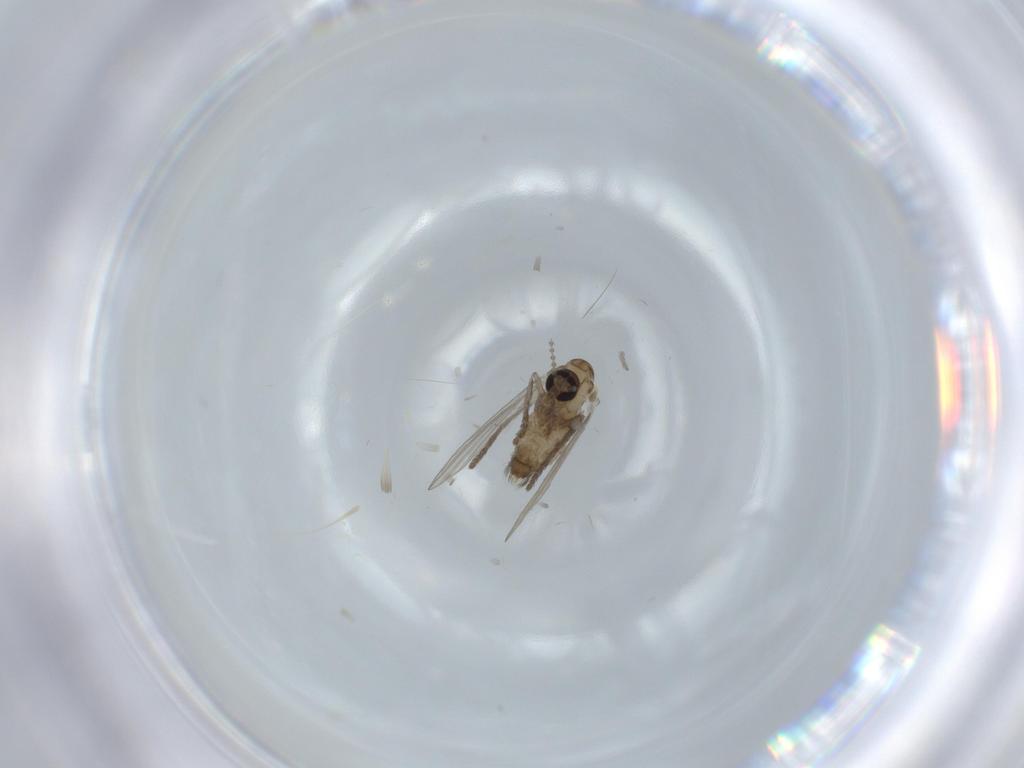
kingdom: Animalia
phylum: Arthropoda
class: Insecta
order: Diptera
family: Psychodidae
